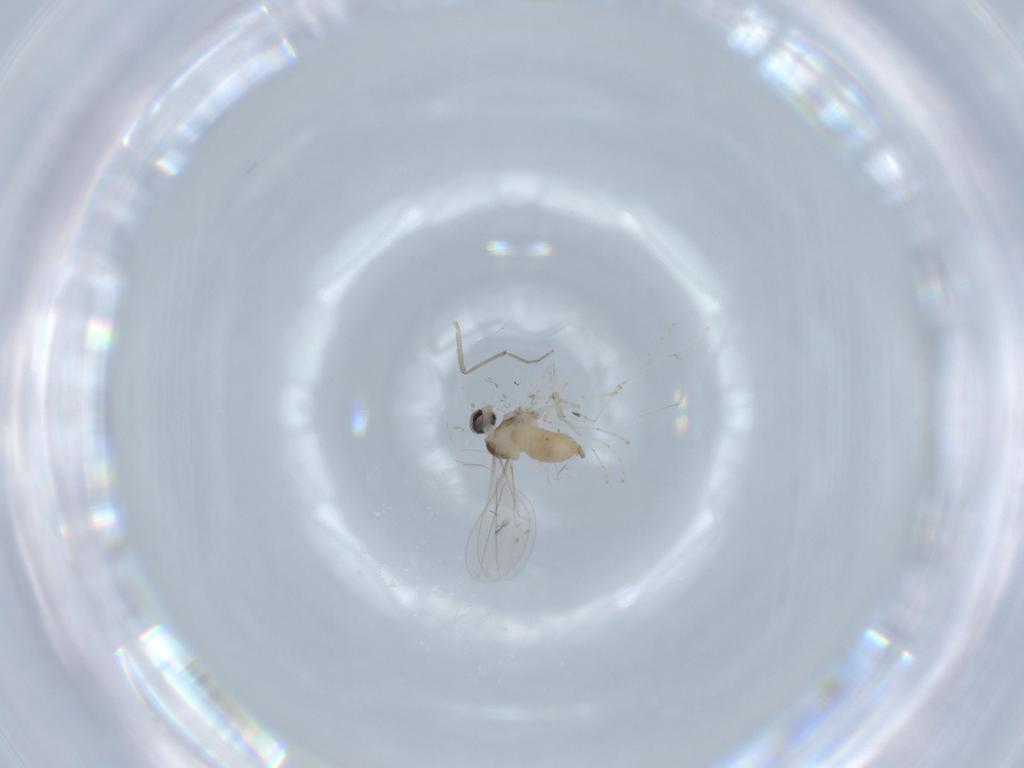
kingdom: Animalia
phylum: Arthropoda
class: Insecta
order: Diptera
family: Cecidomyiidae
